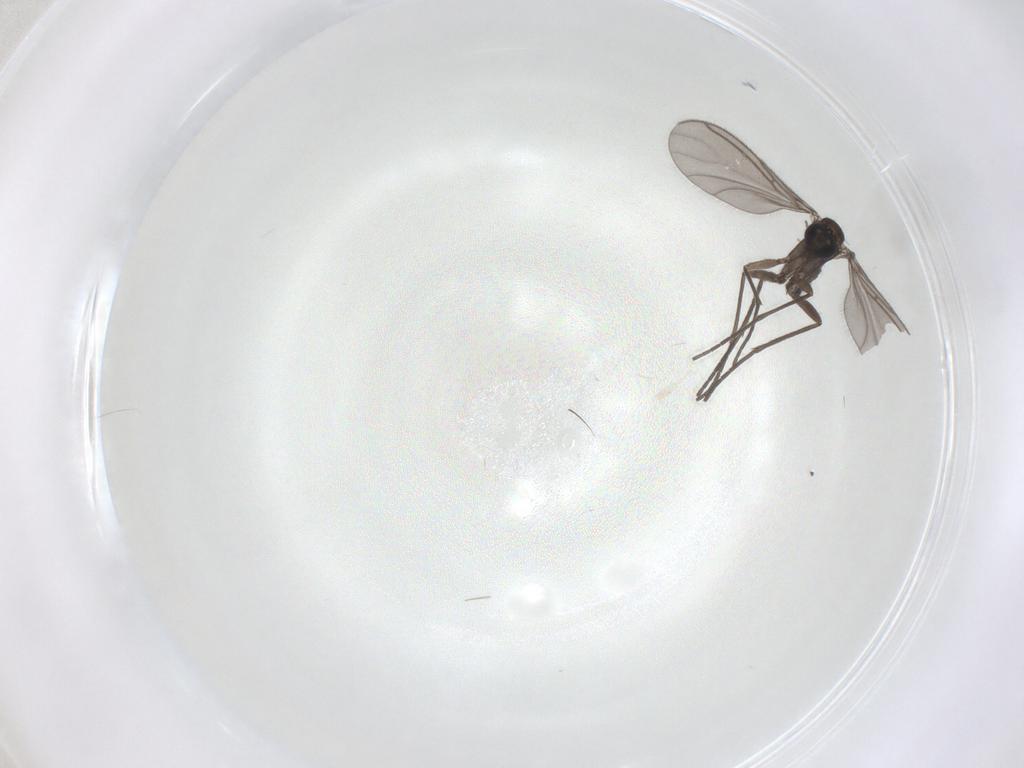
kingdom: Animalia
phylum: Arthropoda
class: Insecta
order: Diptera
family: Sciaridae
